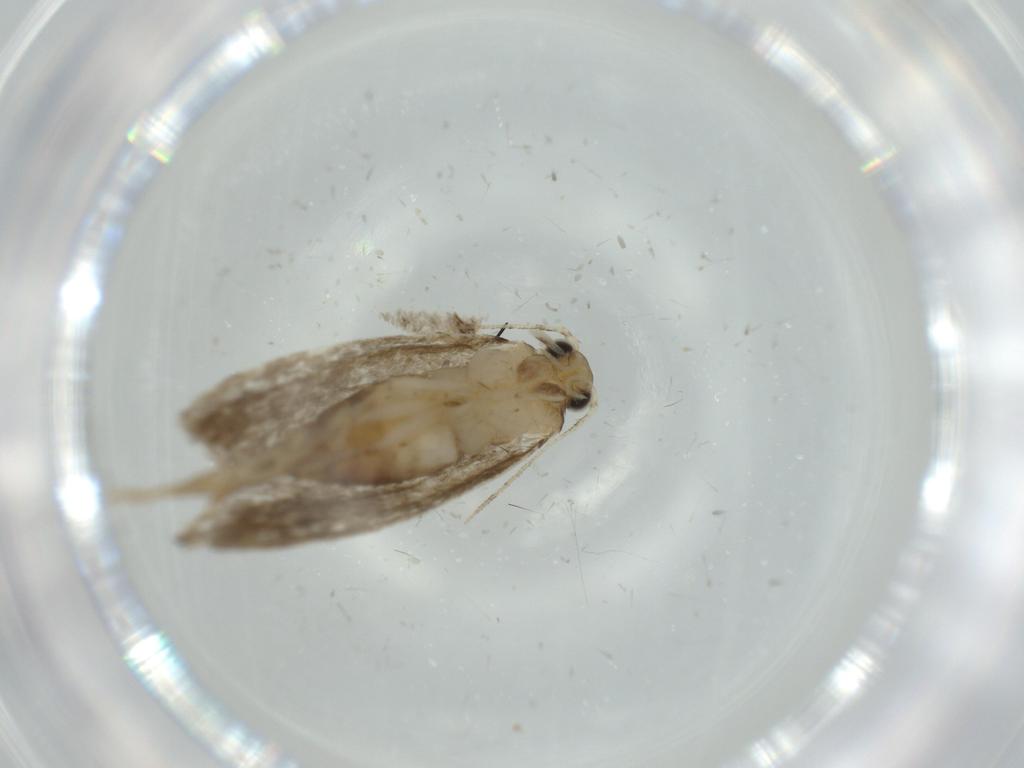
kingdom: Animalia
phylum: Arthropoda
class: Insecta
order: Lepidoptera
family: Tineidae
